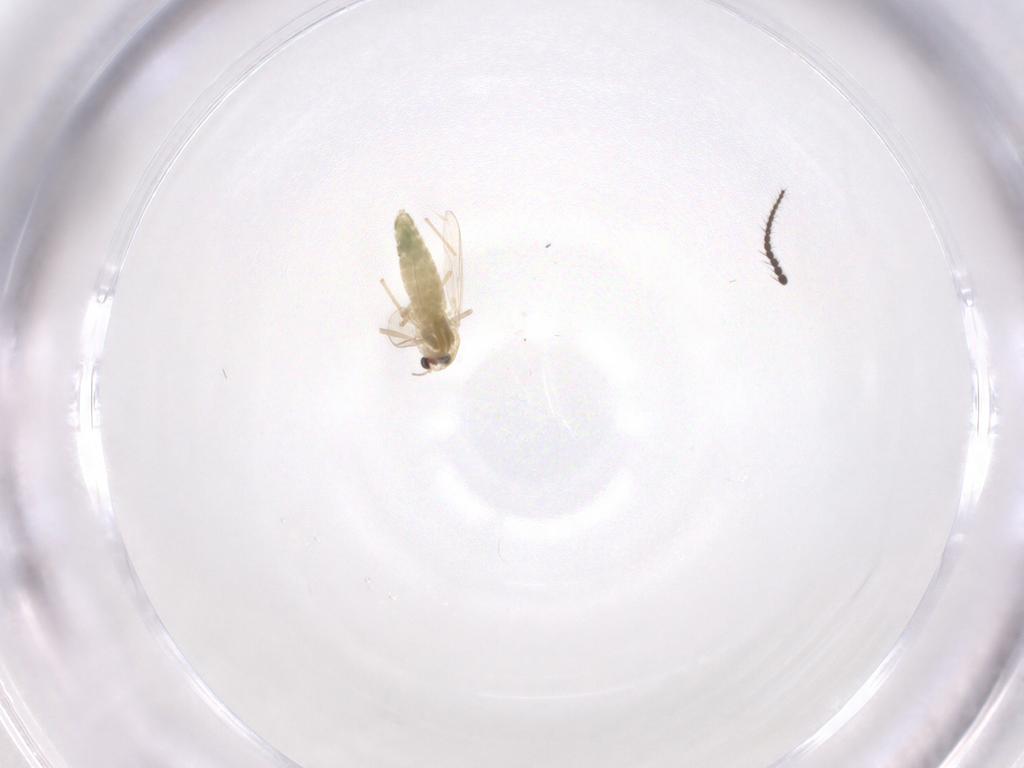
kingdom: Animalia
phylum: Arthropoda
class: Insecta
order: Diptera
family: Chironomidae
